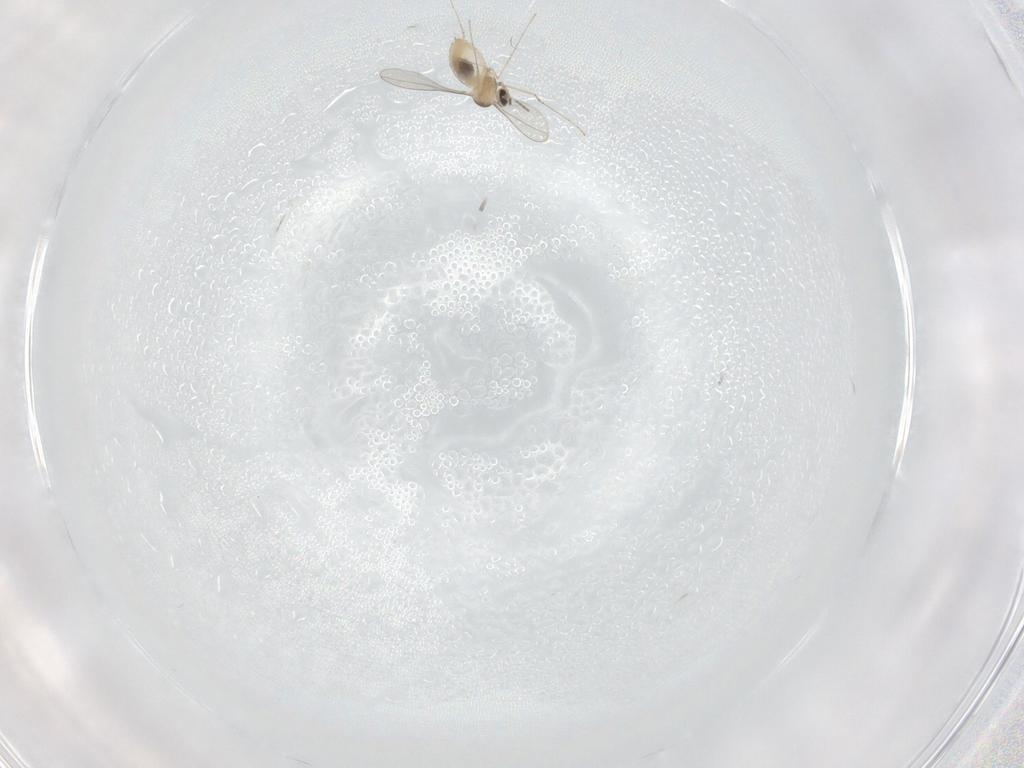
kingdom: Animalia
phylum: Arthropoda
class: Insecta
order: Diptera
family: Cecidomyiidae
